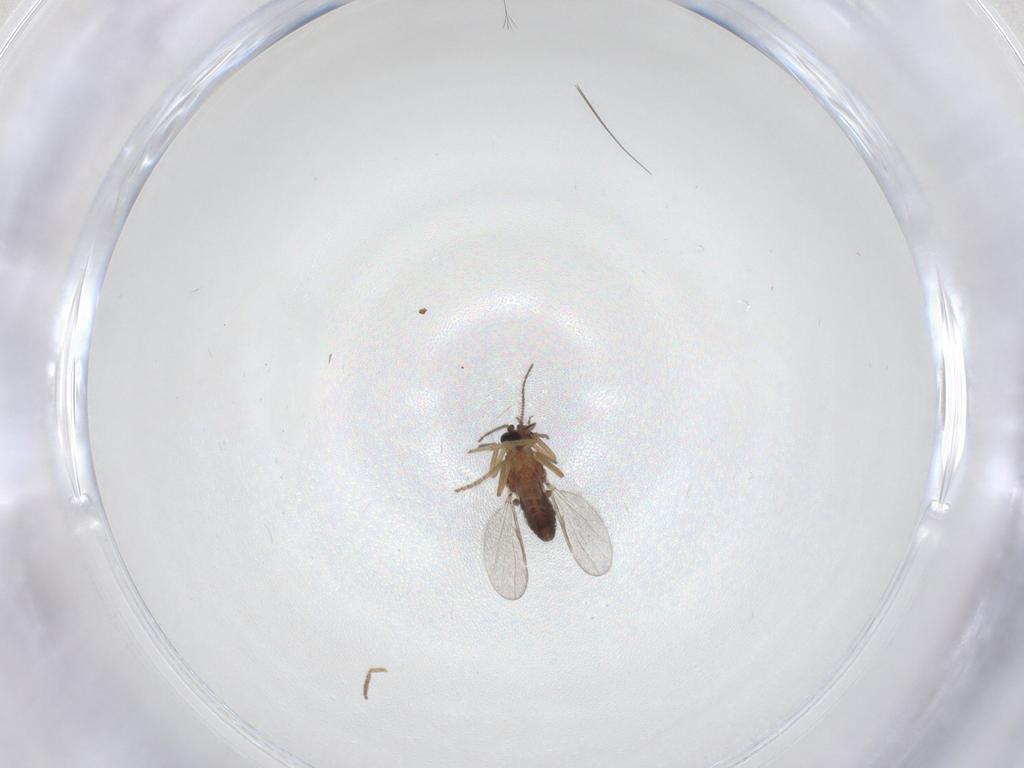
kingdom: Animalia
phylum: Arthropoda
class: Insecta
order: Diptera
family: Ceratopogonidae
